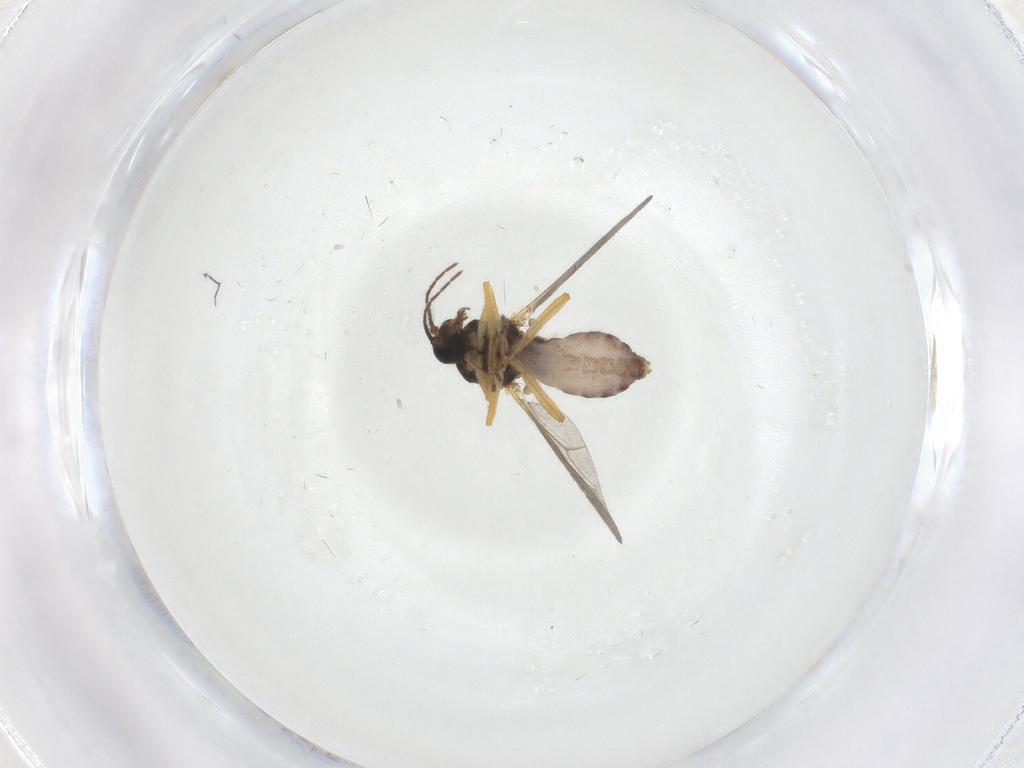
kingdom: Animalia
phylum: Arthropoda
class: Insecta
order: Diptera
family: Ceratopogonidae
